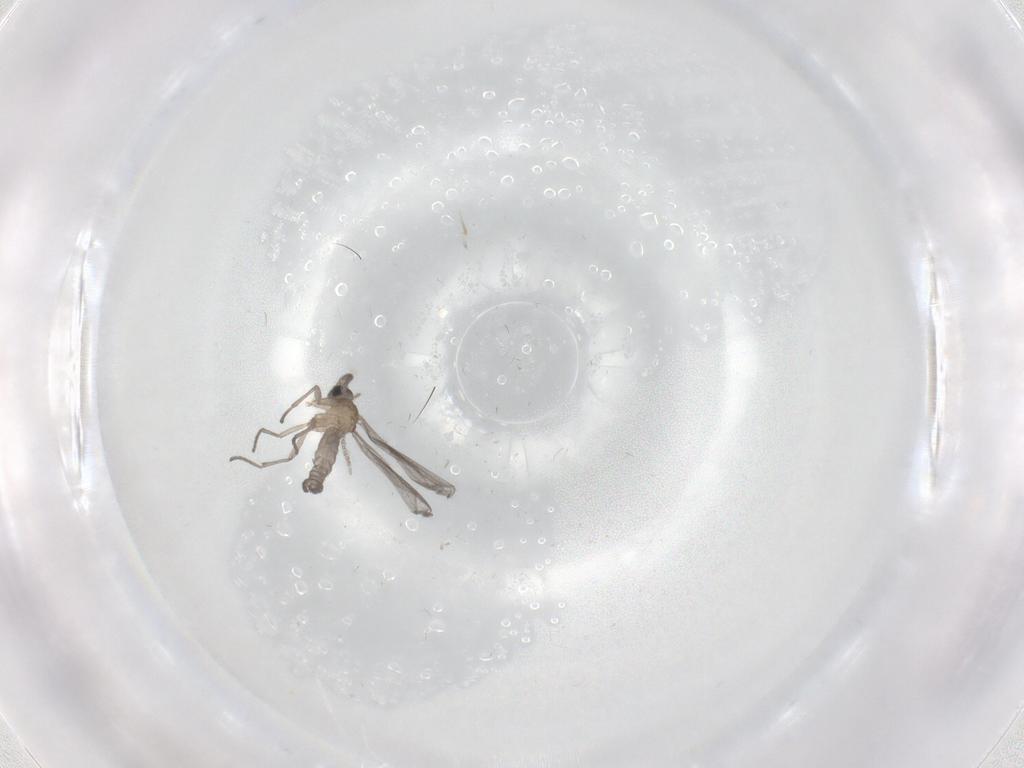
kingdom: Animalia
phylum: Arthropoda
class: Insecta
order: Diptera
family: Sciaridae
